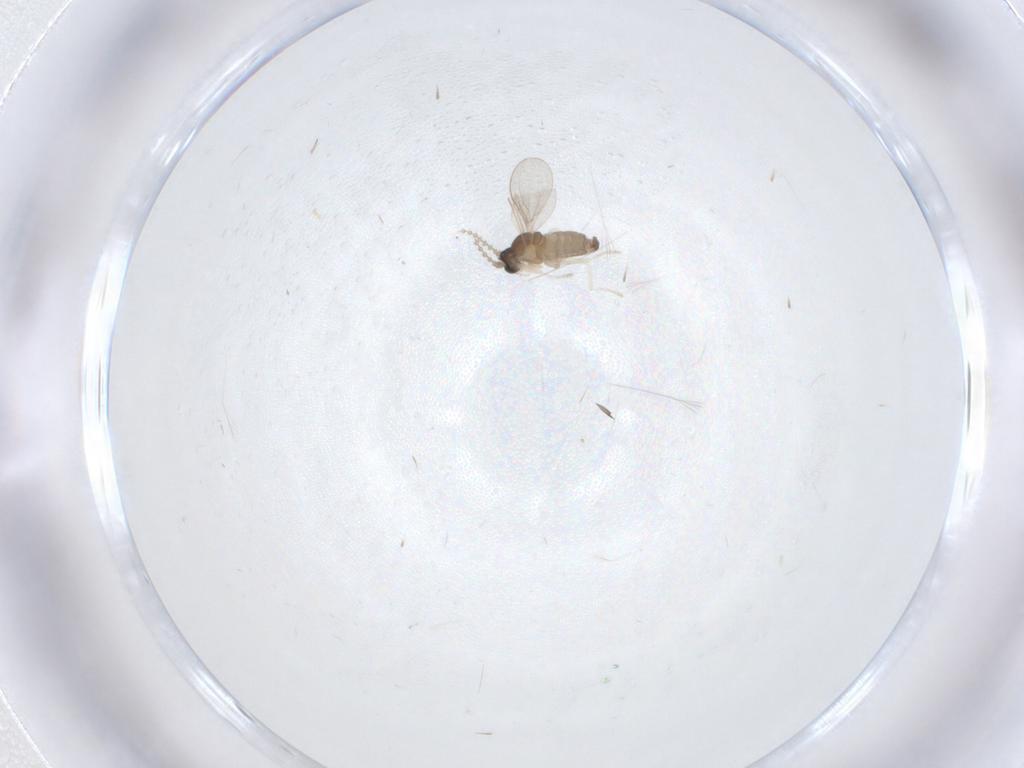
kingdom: Animalia
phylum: Arthropoda
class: Insecta
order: Diptera
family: Cecidomyiidae
